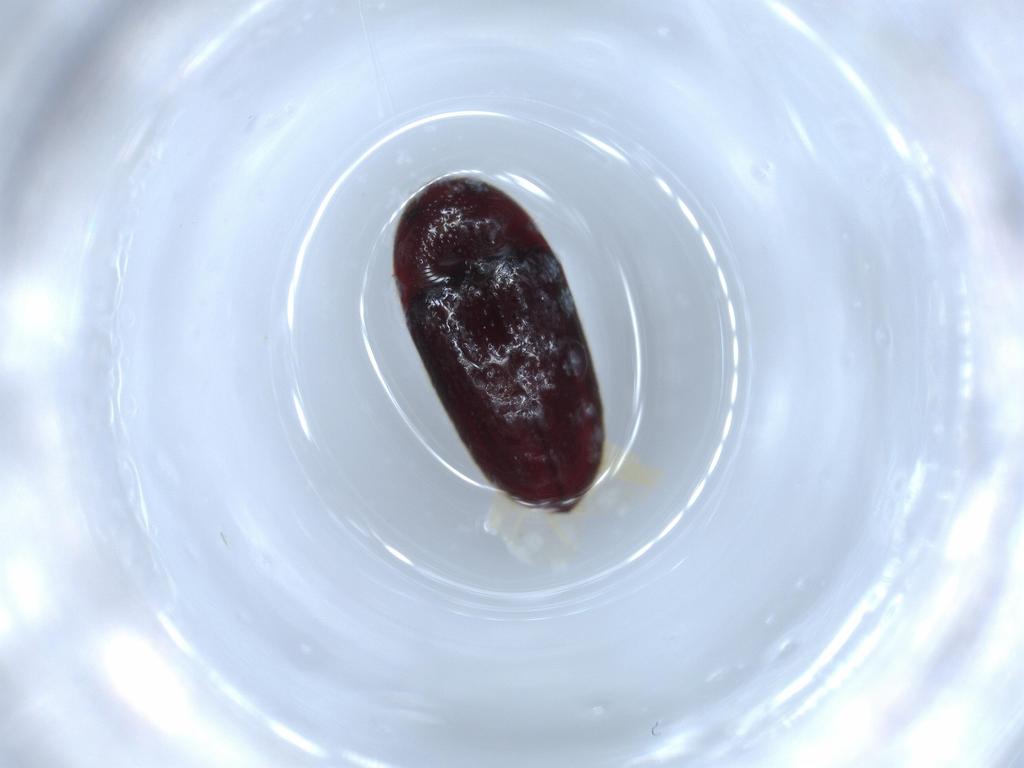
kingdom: Animalia
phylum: Arthropoda
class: Insecta
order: Coleoptera
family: Throscidae
